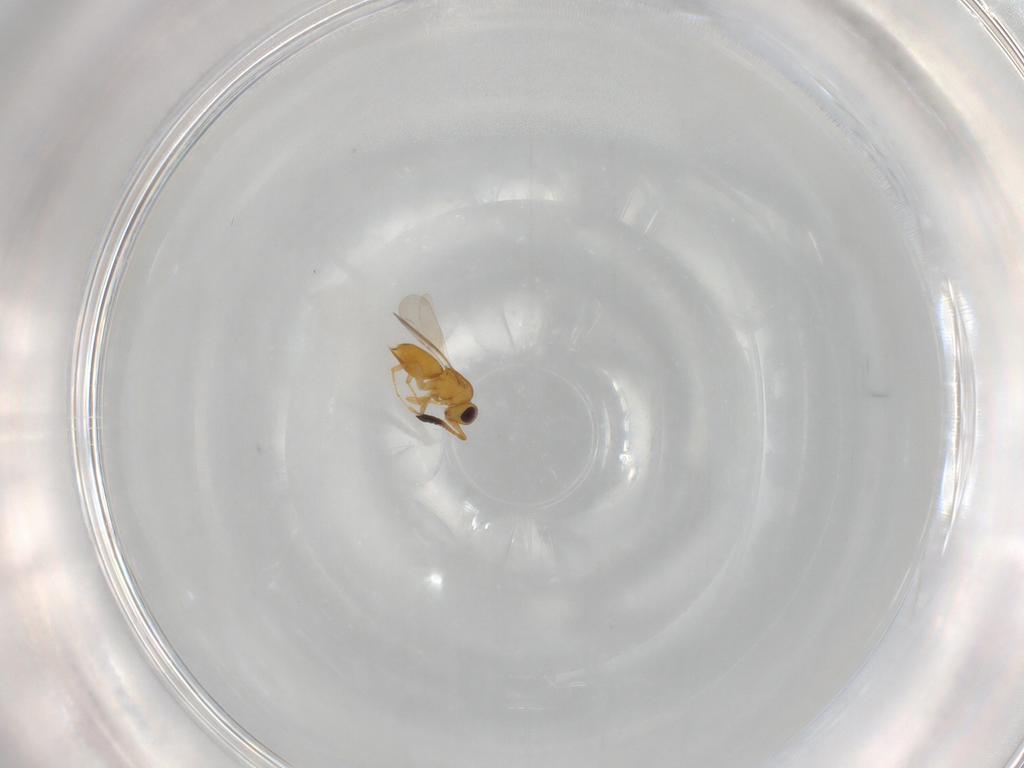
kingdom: Animalia
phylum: Arthropoda
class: Insecta
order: Hymenoptera
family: Ceraphronidae
